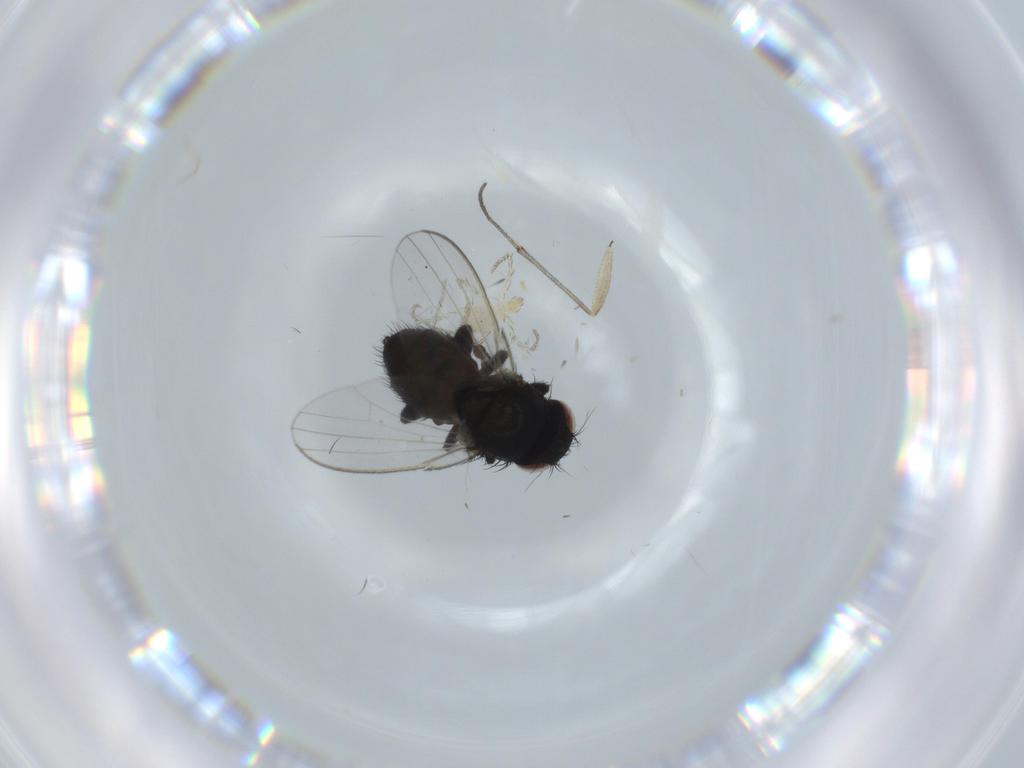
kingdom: Animalia
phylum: Arthropoda
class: Insecta
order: Diptera
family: Milichiidae
